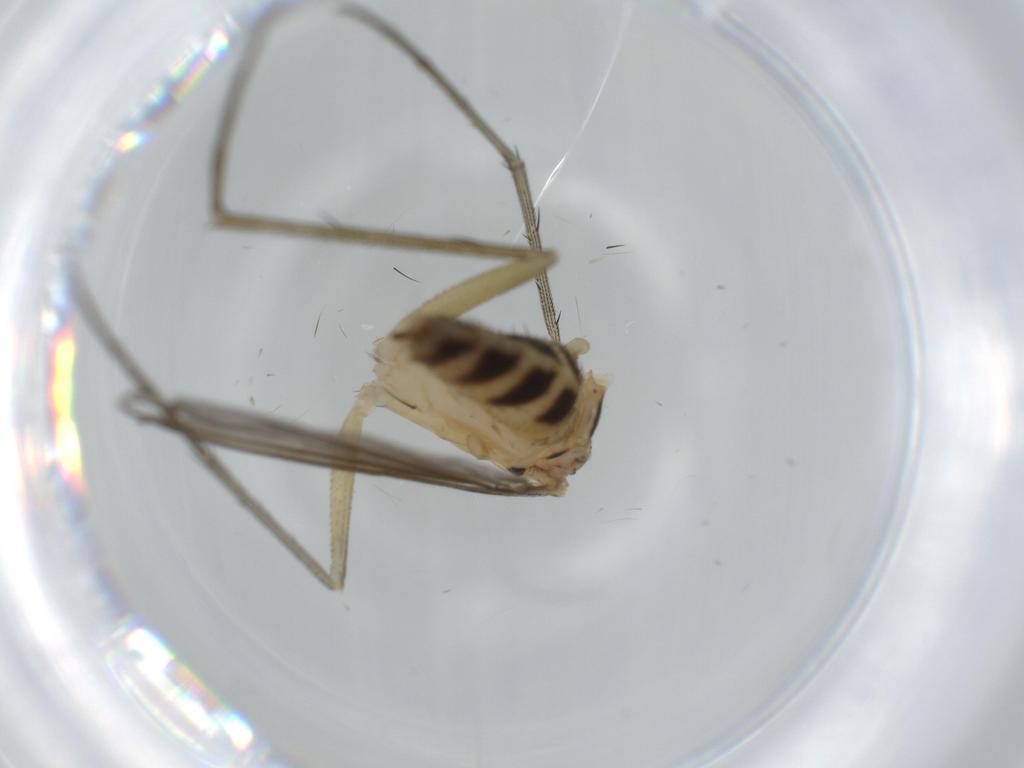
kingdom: Animalia
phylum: Arthropoda
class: Insecta
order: Diptera
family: Dolichopodidae
